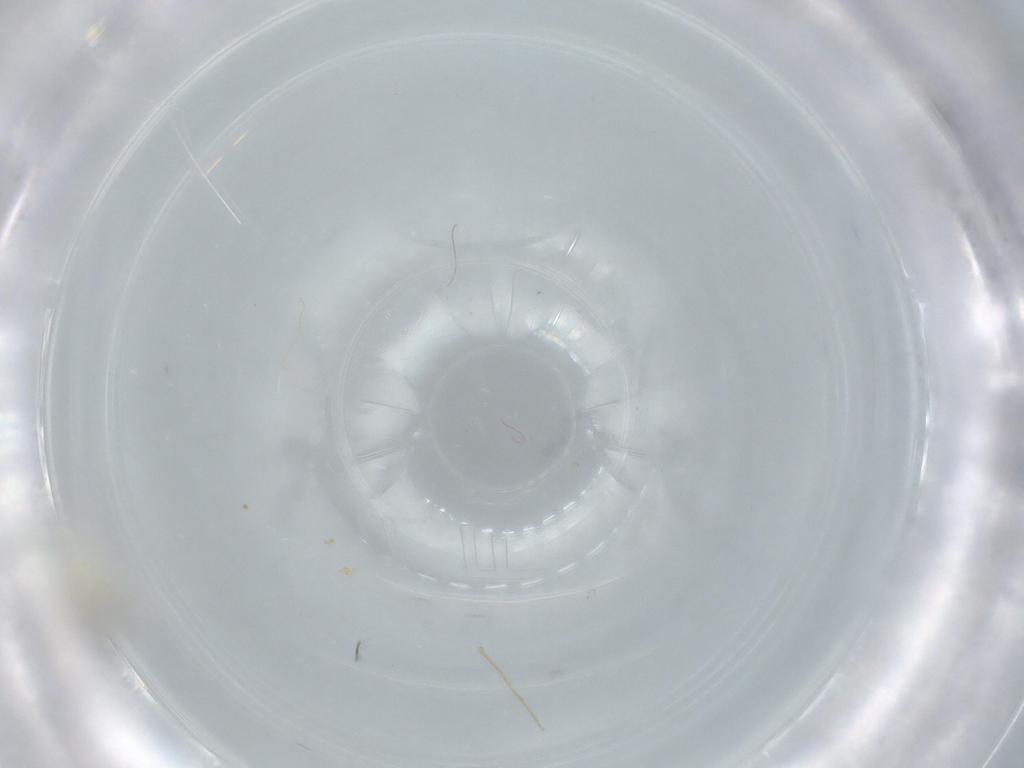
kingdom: Animalia
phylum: Arthropoda
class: Insecta
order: Diptera
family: Cecidomyiidae
